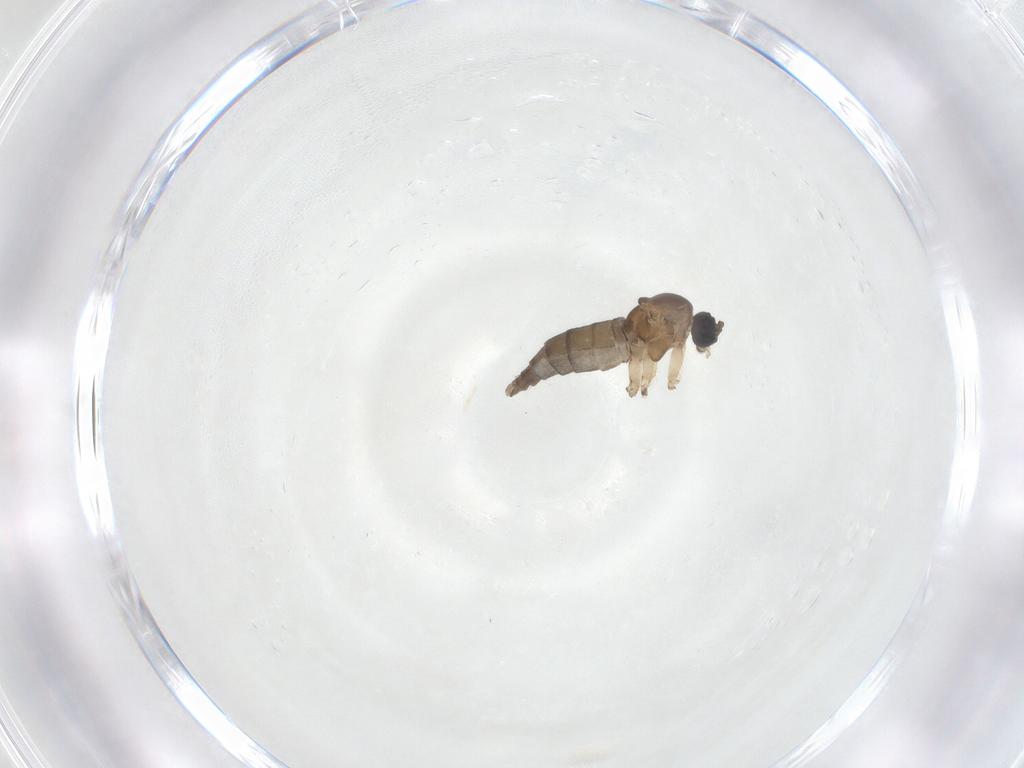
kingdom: Animalia
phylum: Arthropoda
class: Insecta
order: Diptera
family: Sciaridae
